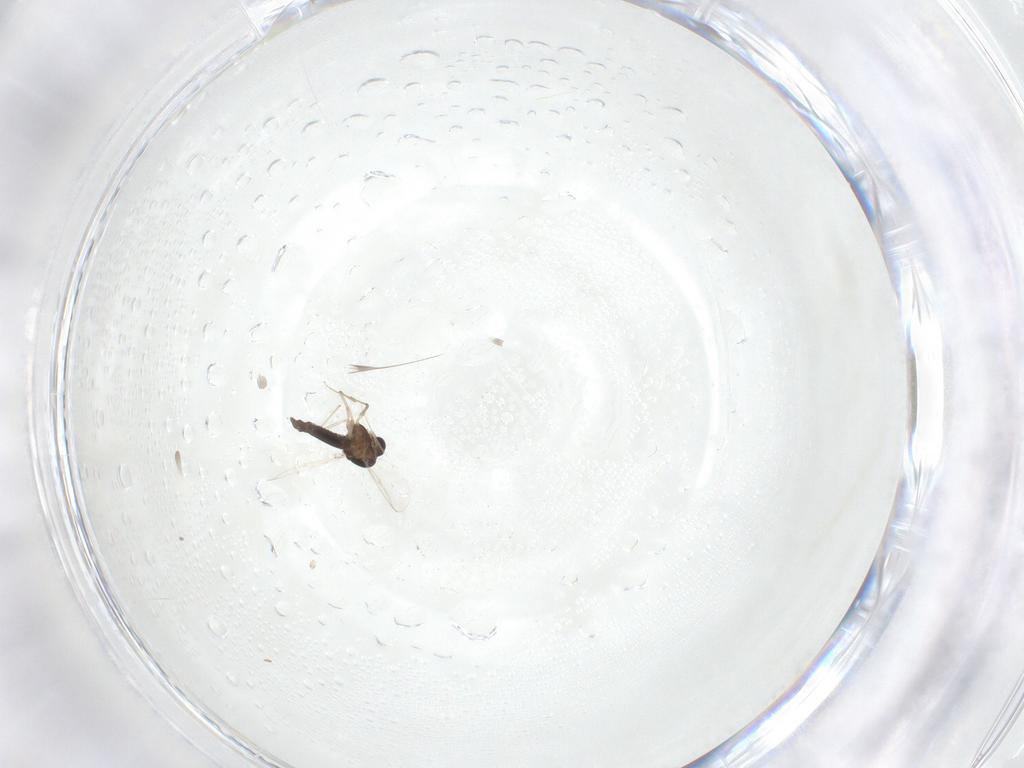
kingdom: Animalia
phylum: Arthropoda
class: Insecta
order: Diptera
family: Chironomidae
